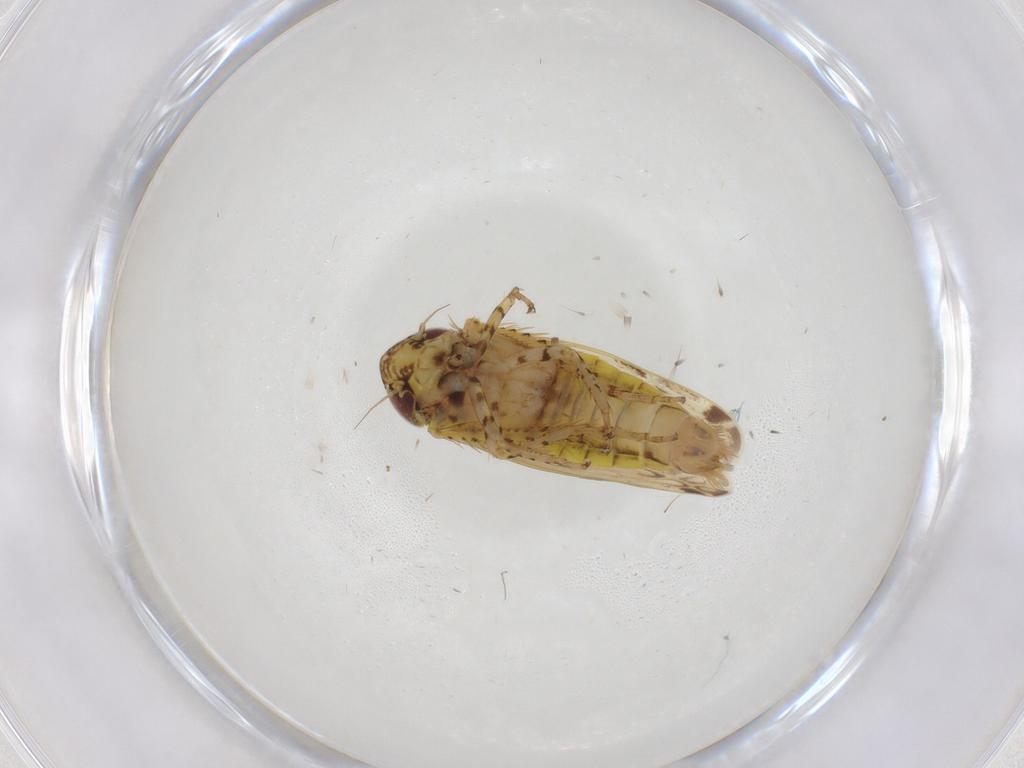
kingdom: Animalia
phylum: Arthropoda
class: Insecta
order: Hemiptera
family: Cicadellidae
